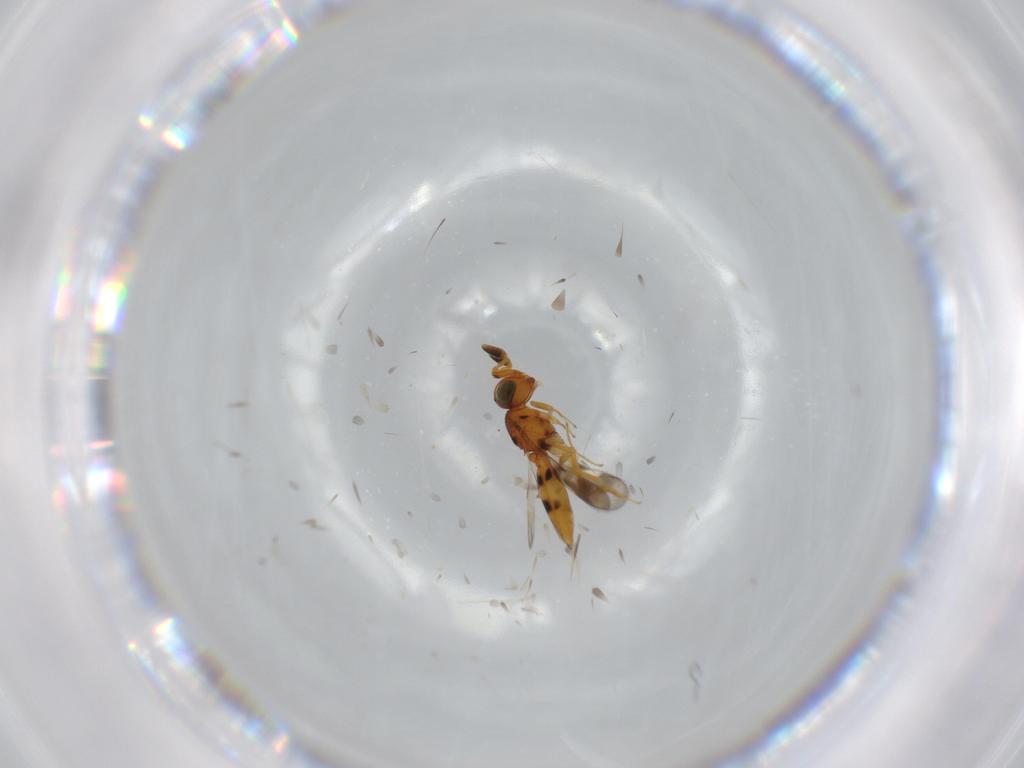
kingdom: Animalia
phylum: Arthropoda
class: Insecta
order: Hymenoptera
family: Scelionidae
